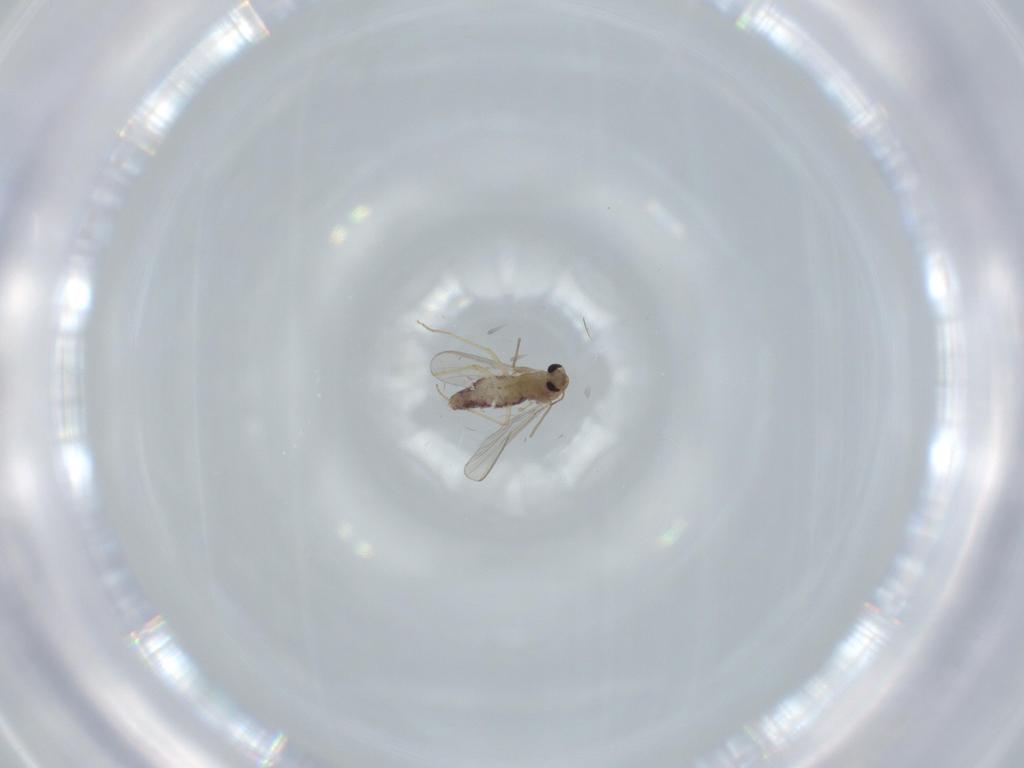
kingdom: Animalia
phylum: Arthropoda
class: Insecta
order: Diptera
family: Chironomidae
